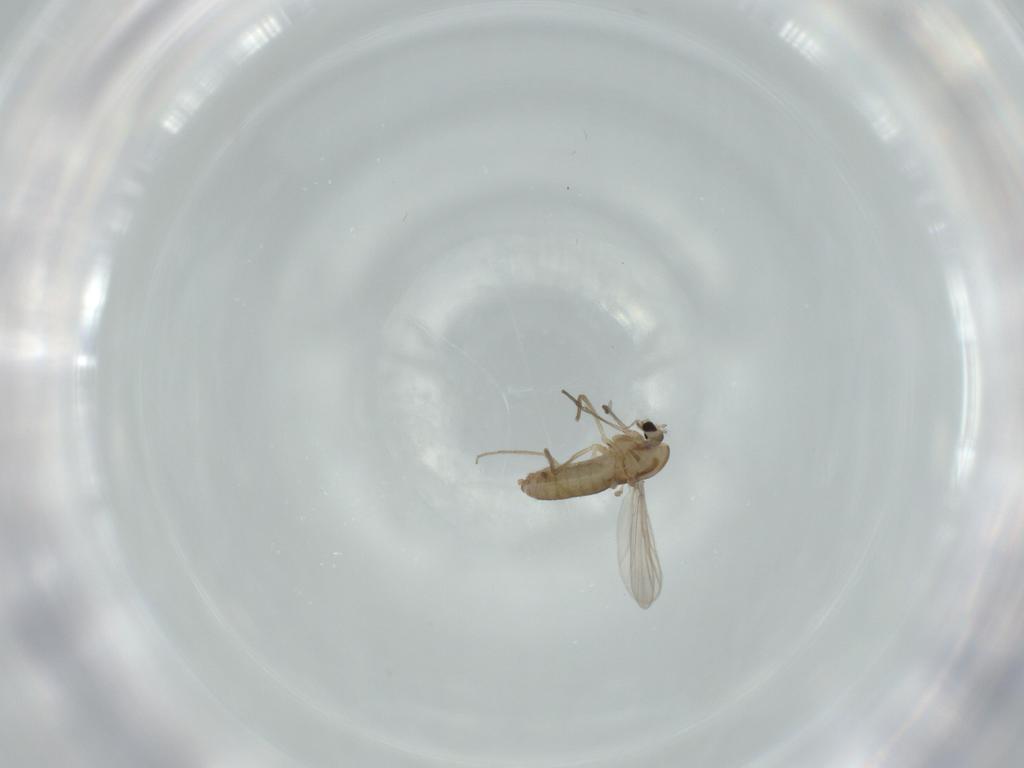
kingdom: Animalia
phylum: Arthropoda
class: Insecta
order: Diptera
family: Chironomidae
